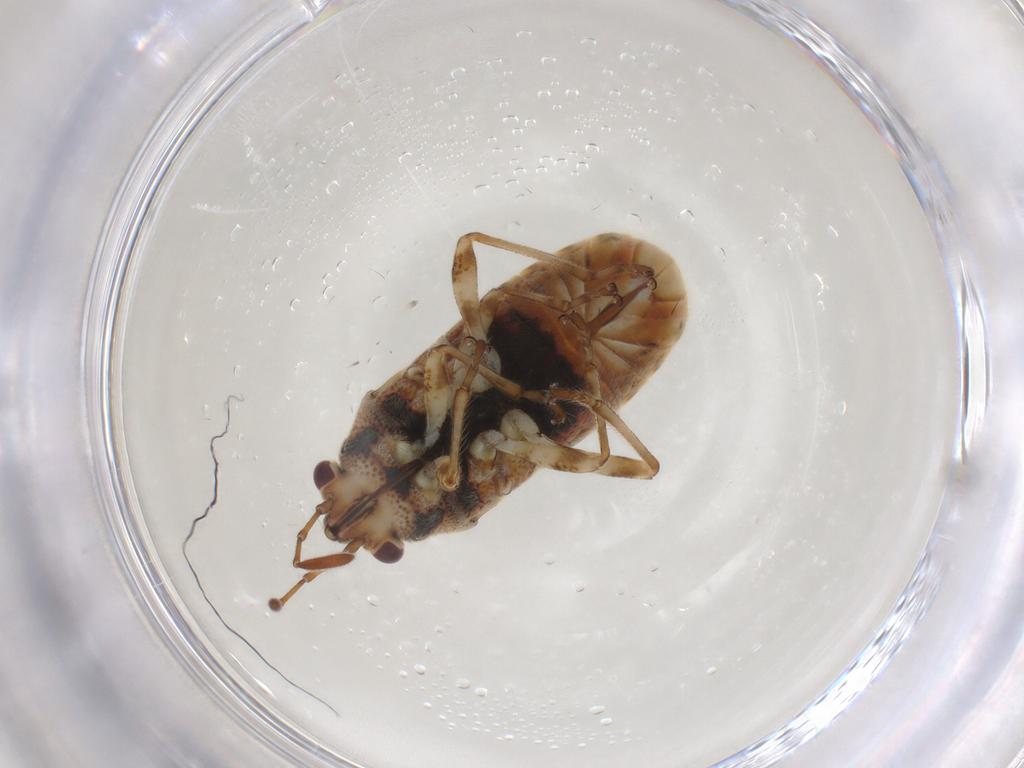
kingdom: Animalia
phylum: Arthropoda
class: Insecta
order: Hemiptera
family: Lygaeidae
